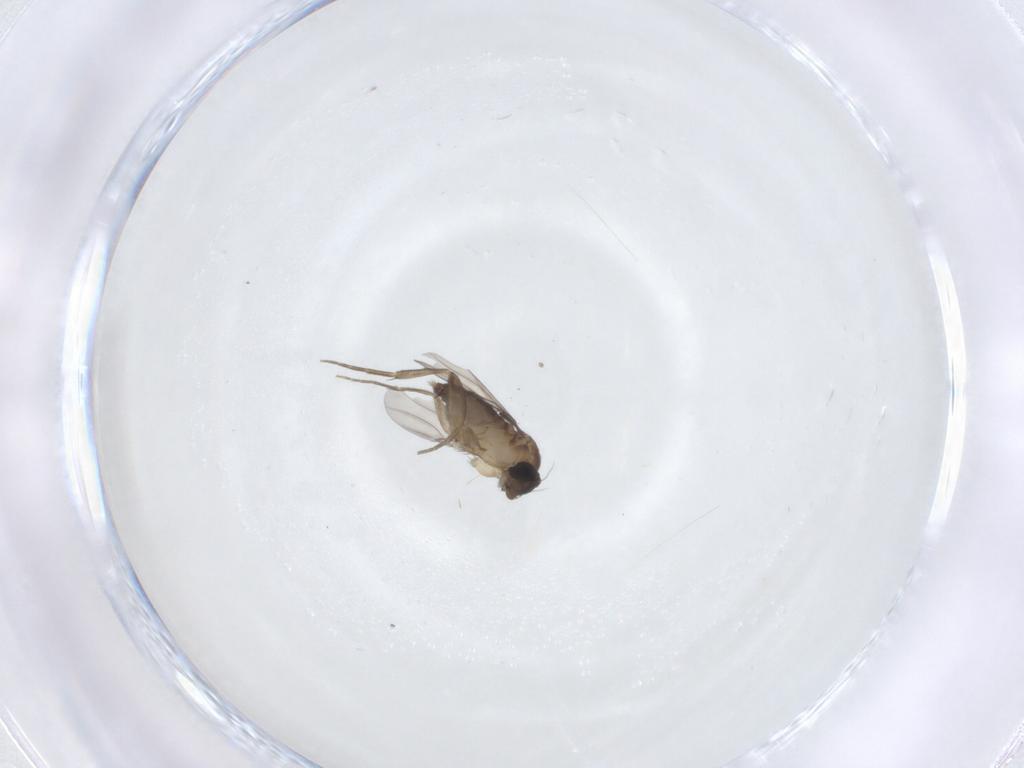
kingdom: Animalia
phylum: Arthropoda
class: Insecta
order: Diptera
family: Phoridae
